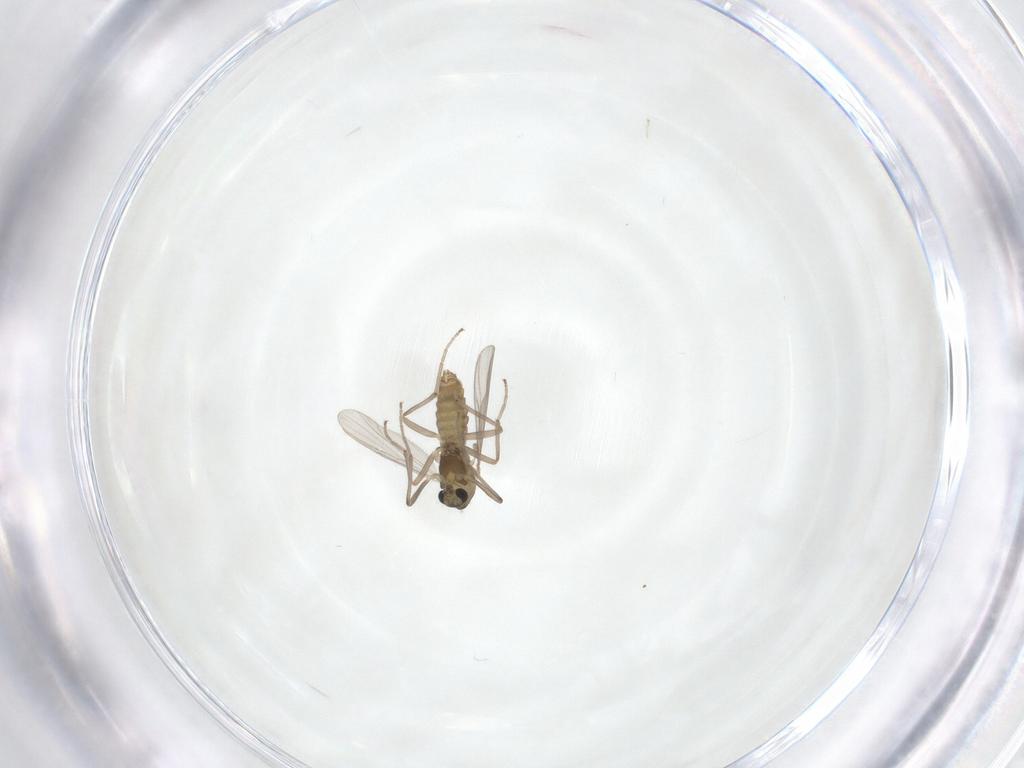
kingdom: Animalia
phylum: Arthropoda
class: Insecta
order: Diptera
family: Chironomidae
